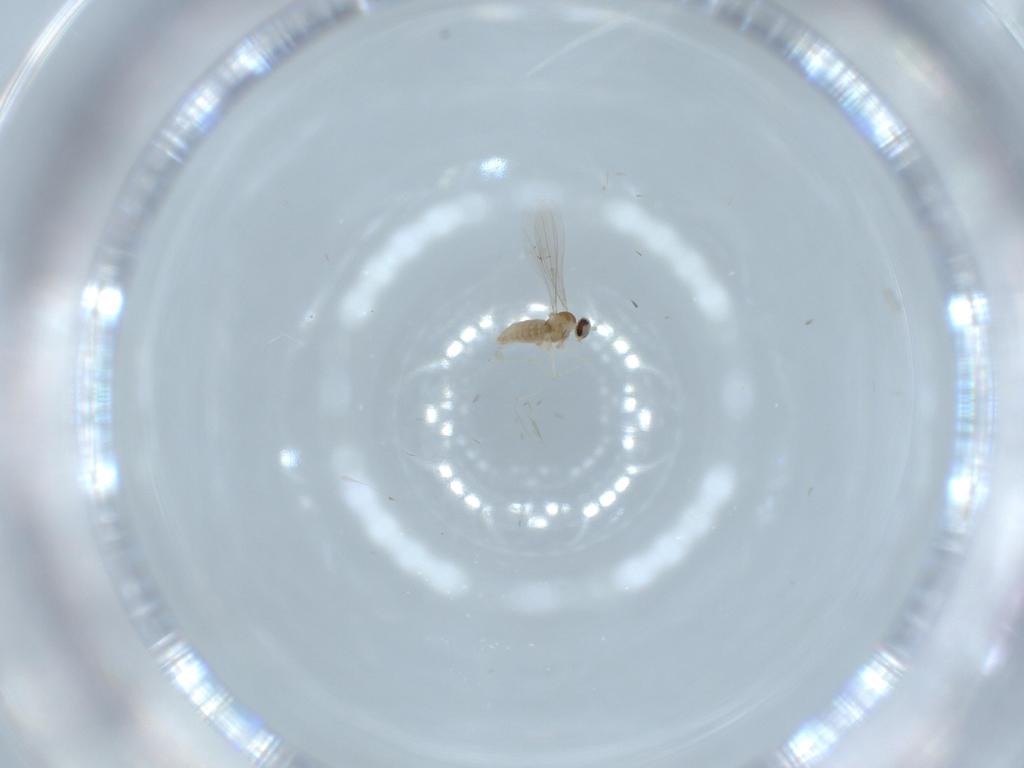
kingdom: Animalia
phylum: Arthropoda
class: Insecta
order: Diptera
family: Cecidomyiidae
